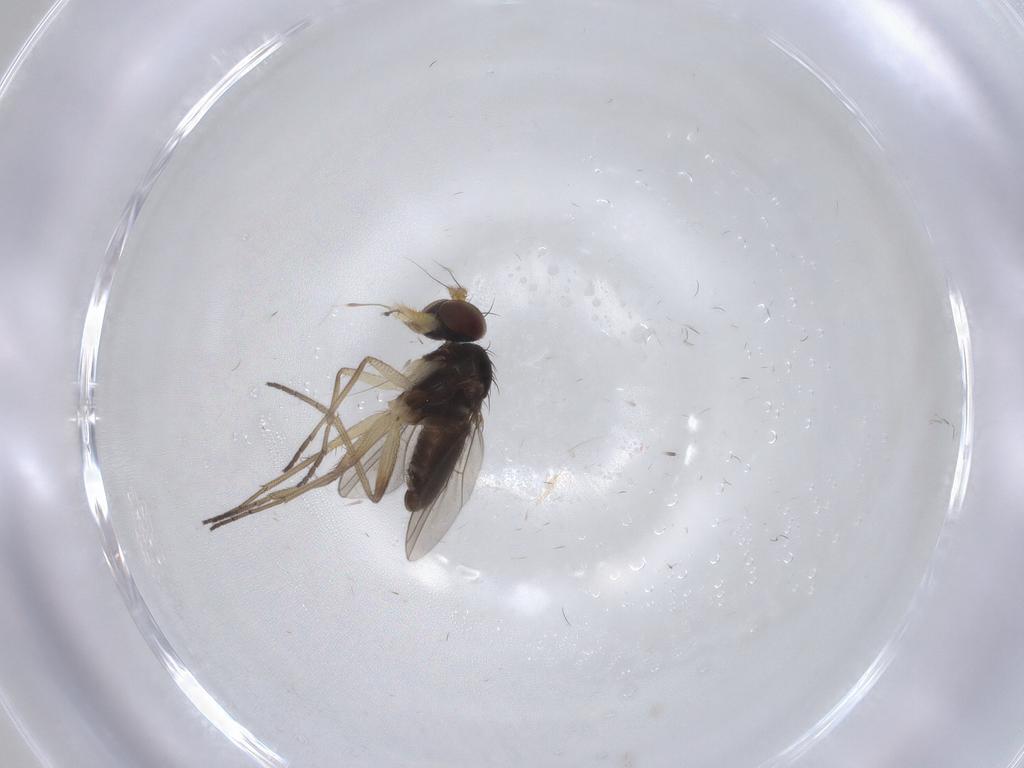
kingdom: Animalia
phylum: Arthropoda
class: Insecta
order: Diptera
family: Dolichopodidae
